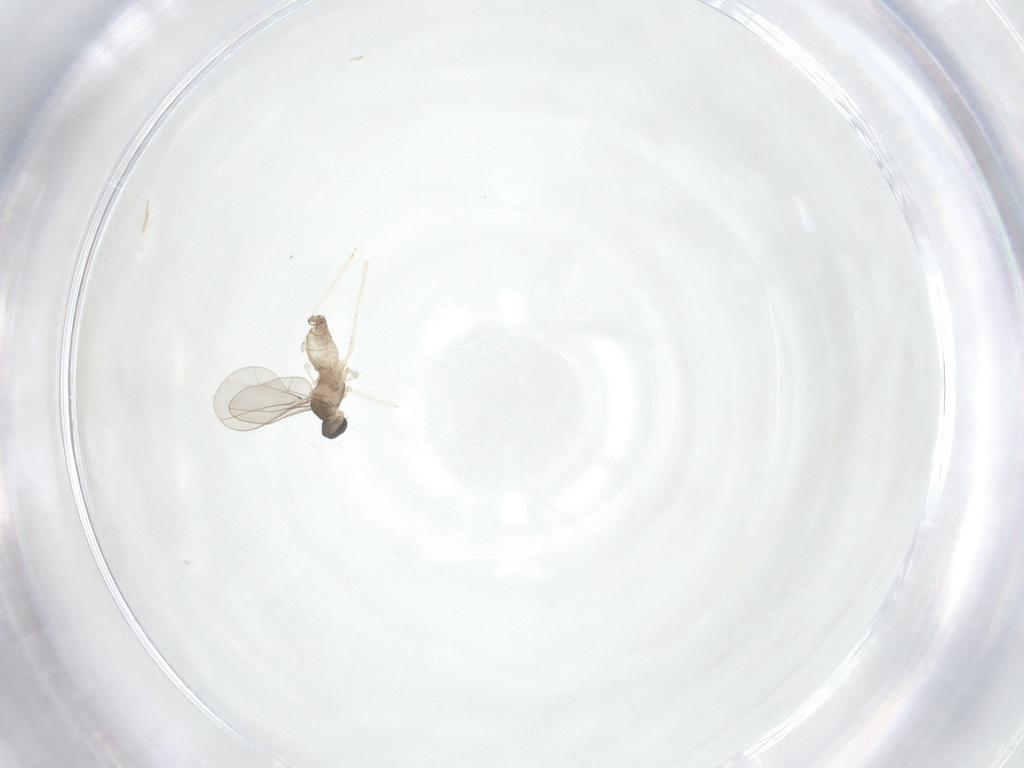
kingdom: Animalia
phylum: Arthropoda
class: Insecta
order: Diptera
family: Cecidomyiidae
